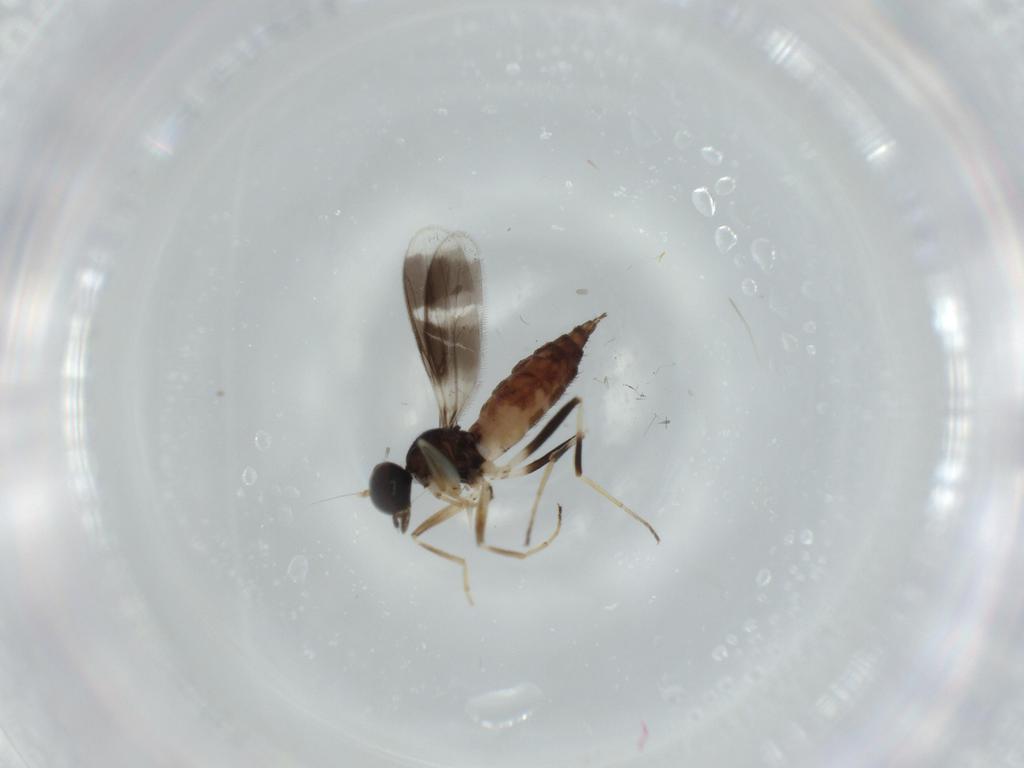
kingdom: Animalia
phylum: Arthropoda
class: Insecta
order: Diptera
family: Hybotidae
